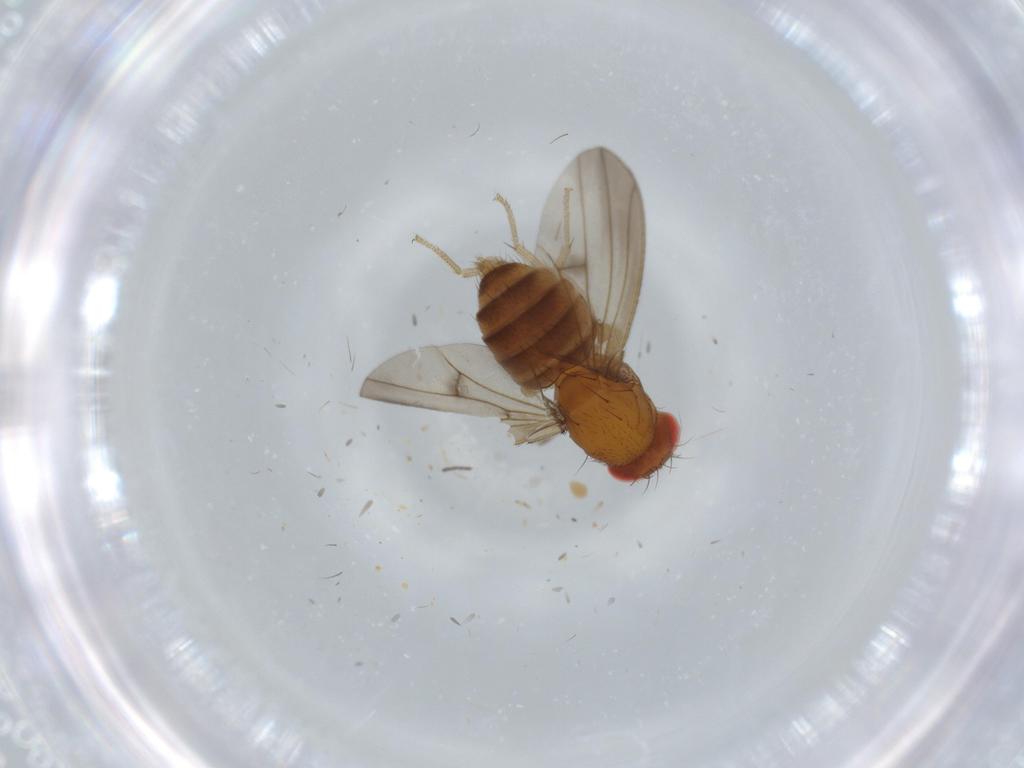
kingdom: Animalia
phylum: Arthropoda
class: Insecta
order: Diptera
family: Drosophilidae
